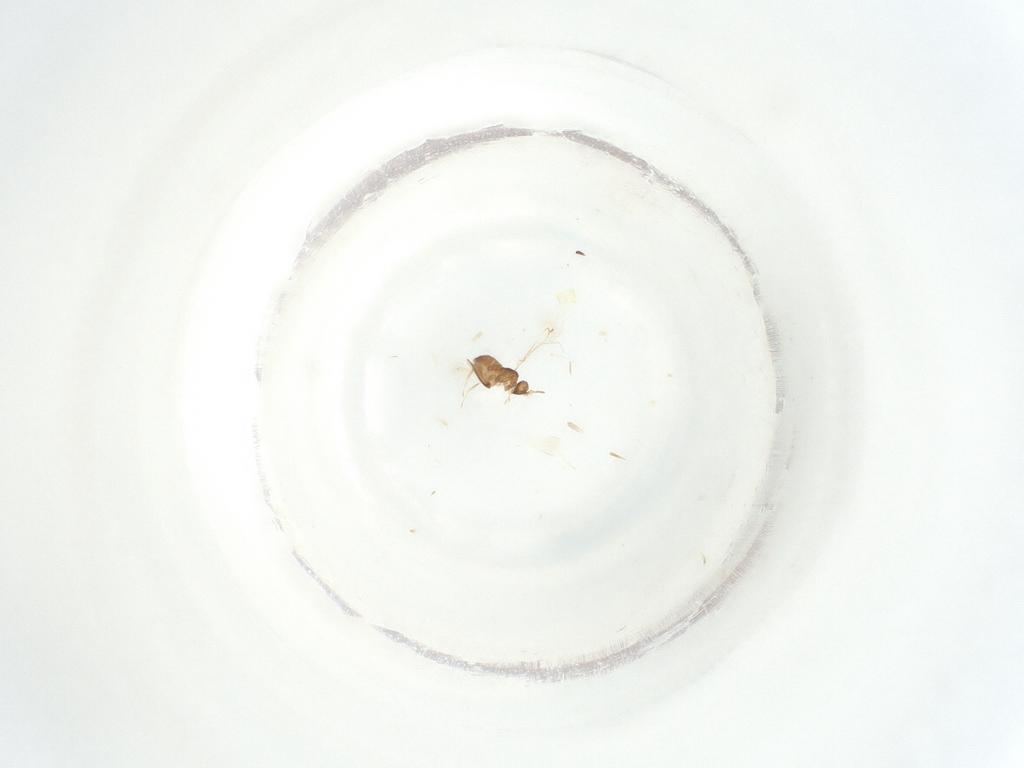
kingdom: Animalia
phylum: Arthropoda
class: Insecta
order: Lepidoptera
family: Noctuidae
